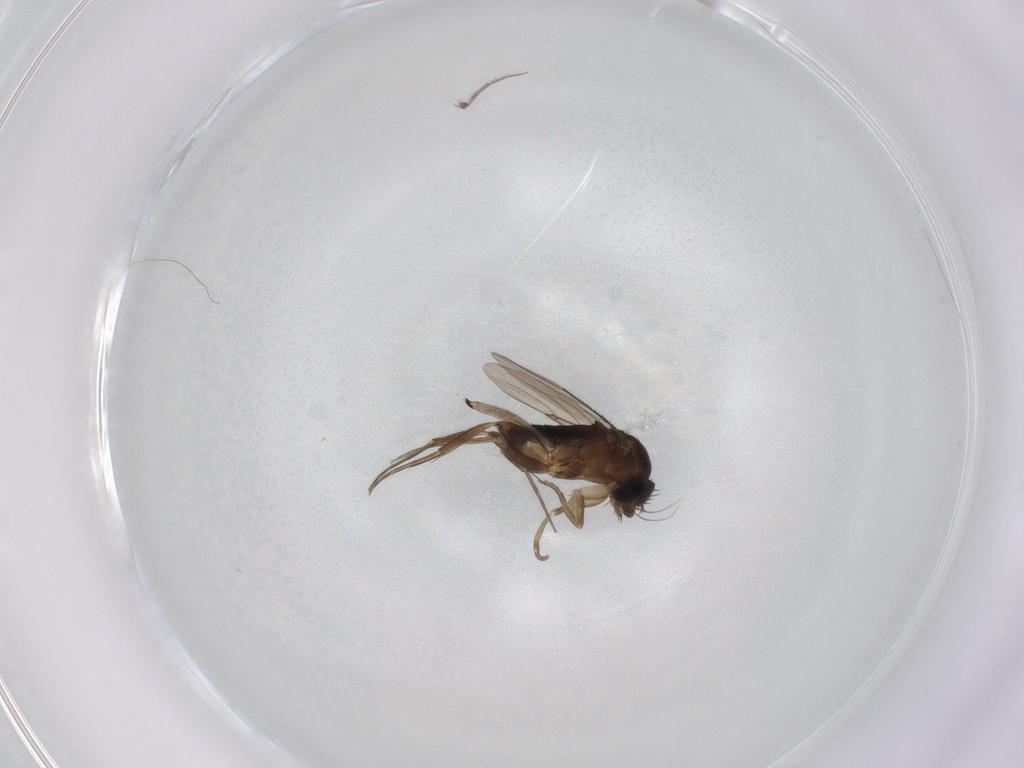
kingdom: Animalia
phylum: Arthropoda
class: Insecta
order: Diptera
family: Phoridae
